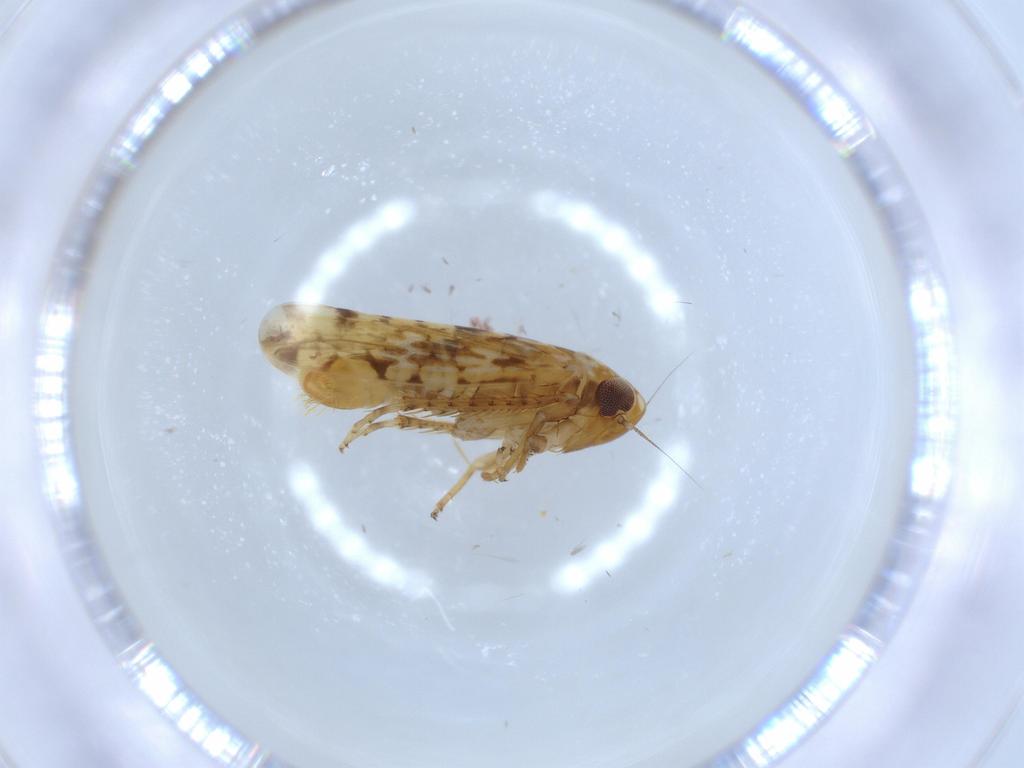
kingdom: Animalia
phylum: Arthropoda
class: Insecta
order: Hemiptera
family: Cicadellidae
